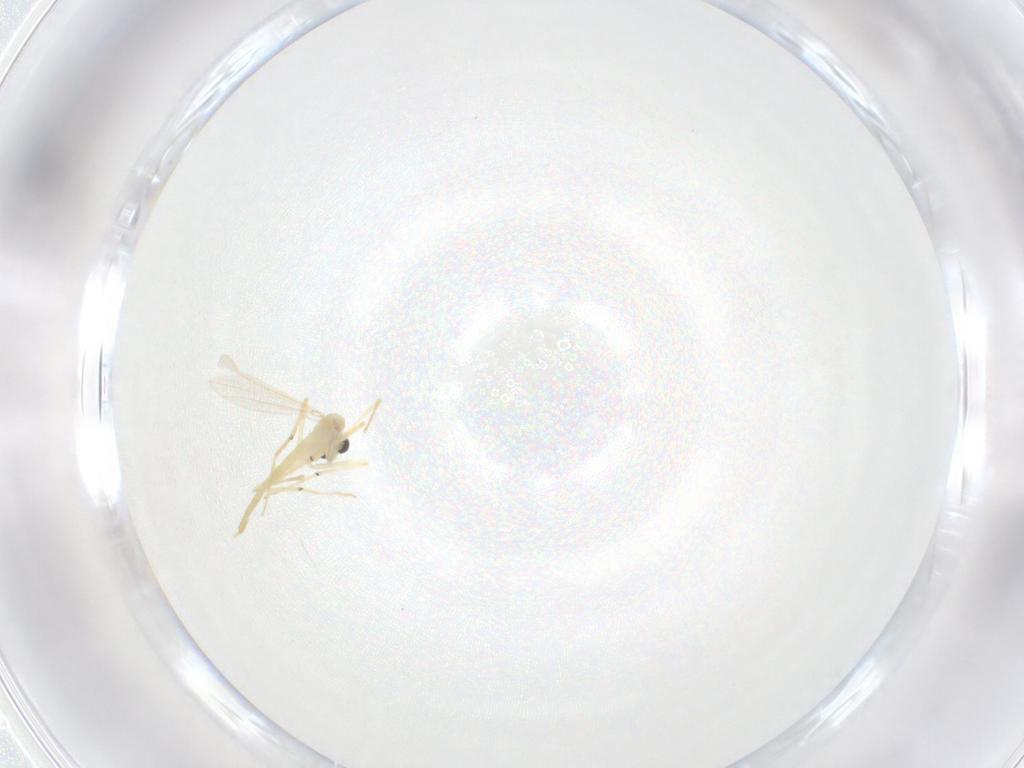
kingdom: Animalia
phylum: Arthropoda
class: Insecta
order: Diptera
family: Chironomidae
